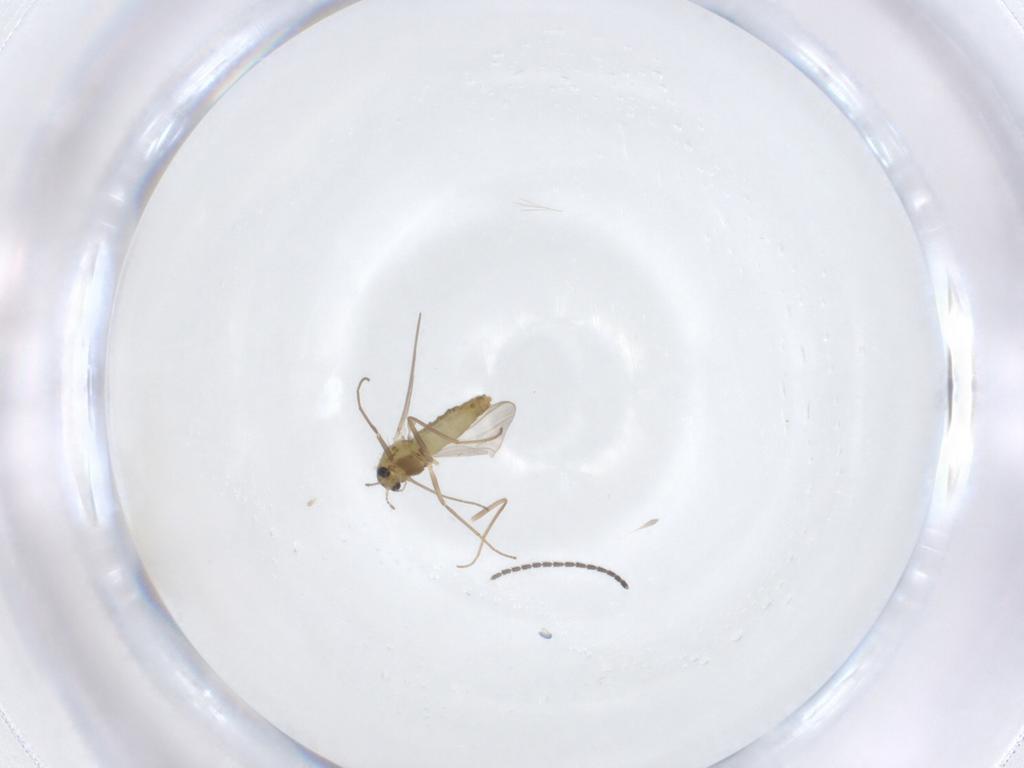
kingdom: Animalia
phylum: Arthropoda
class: Insecta
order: Diptera
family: Chironomidae
